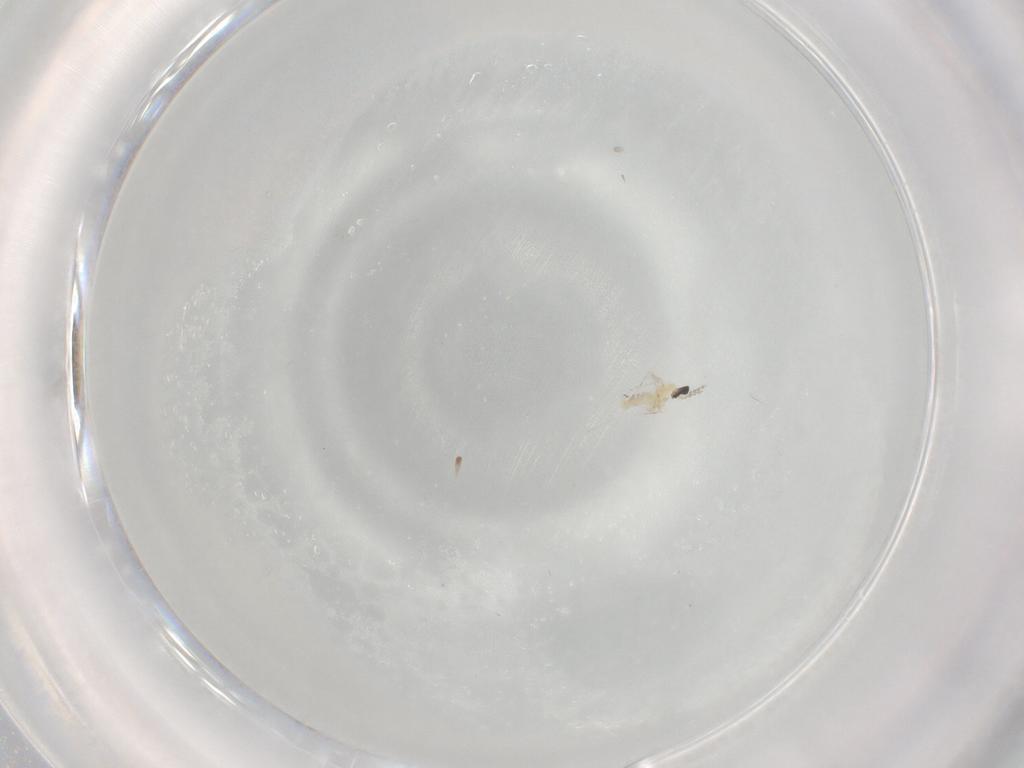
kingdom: Animalia
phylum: Arthropoda
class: Insecta
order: Diptera
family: Cecidomyiidae
